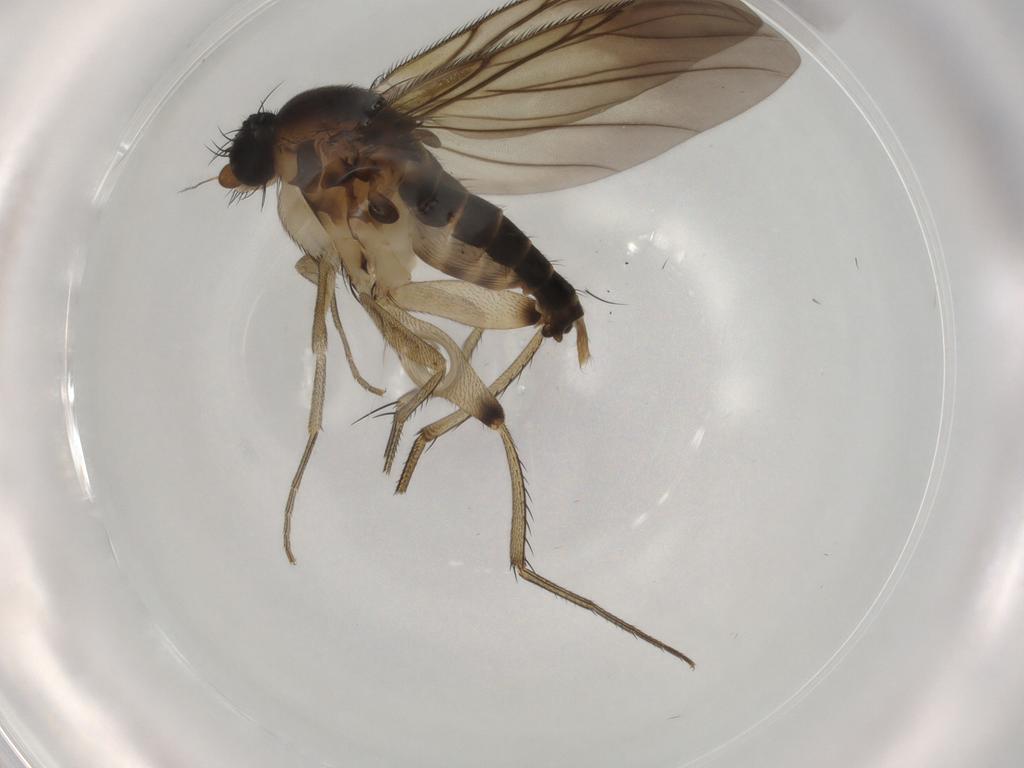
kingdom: Animalia
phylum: Arthropoda
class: Insecta
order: Diptera
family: Phoridae
